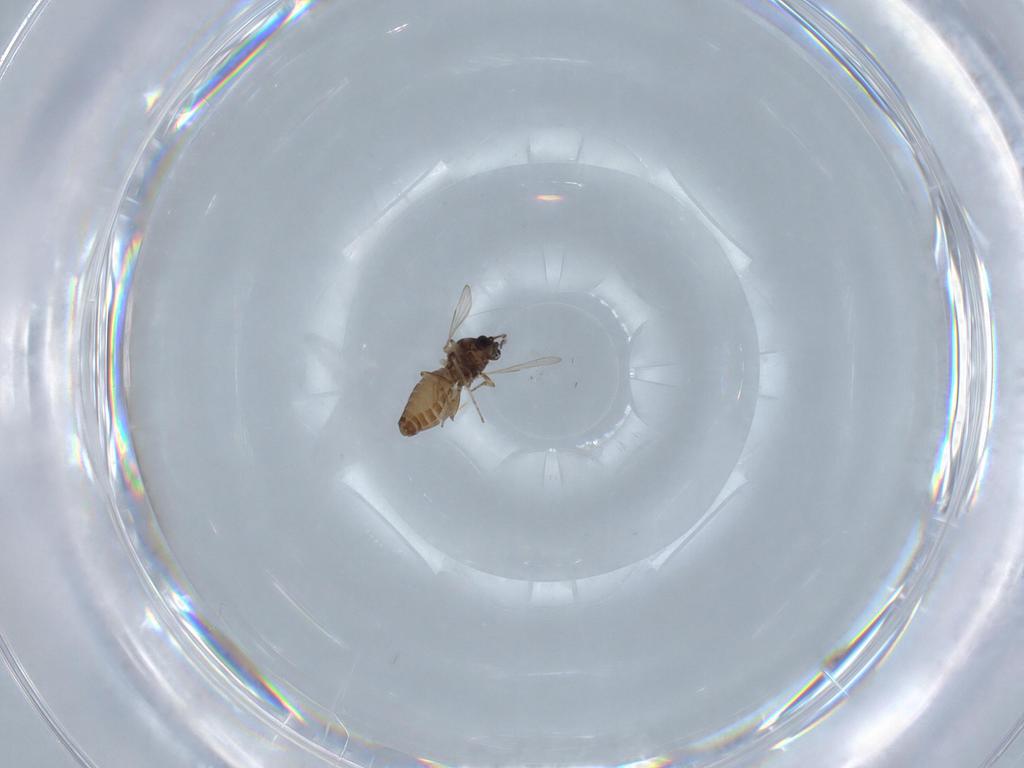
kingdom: Animalia
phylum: Arthropoda
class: Insecta
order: Diptera
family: Ceratopogonidae
